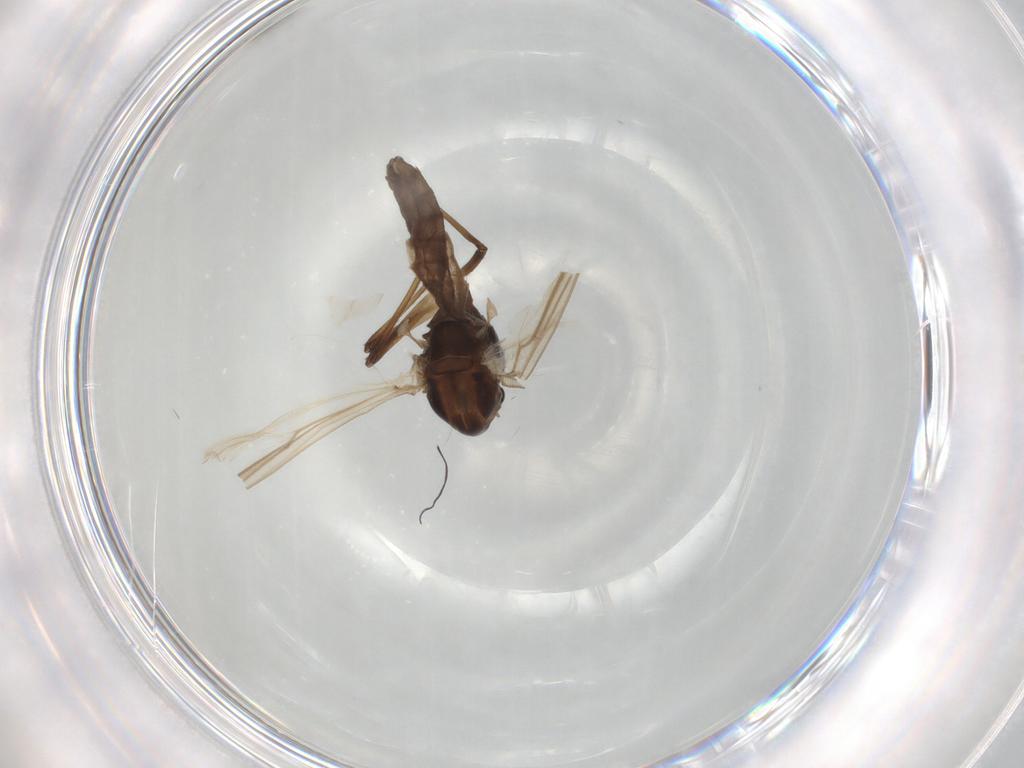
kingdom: Animalia
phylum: Arthropoda
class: Insecta
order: Diptera
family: Chironomidae
